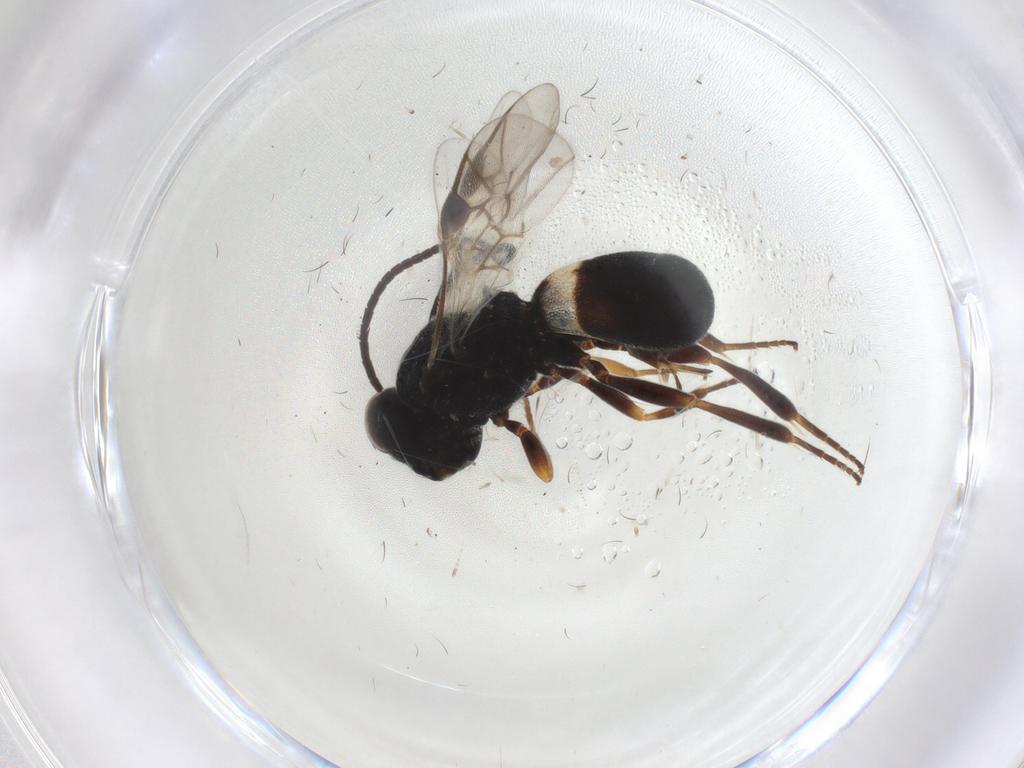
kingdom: Animalia
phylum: Arthropoda
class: Insecta
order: Hymenoptera
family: Braconidae
